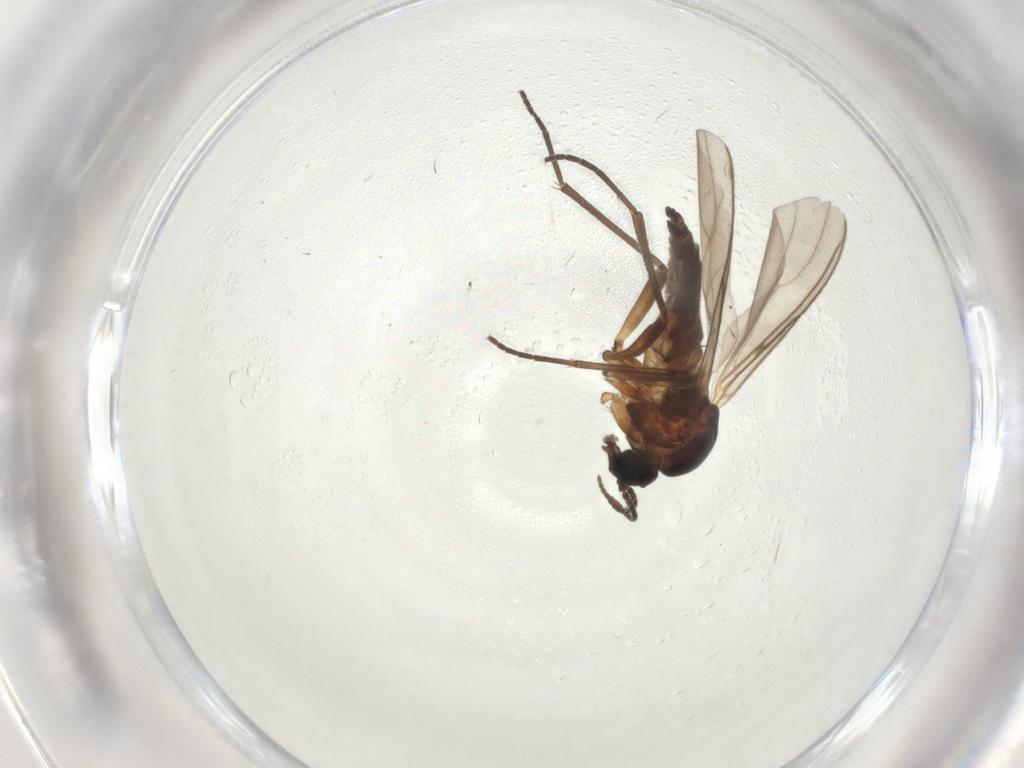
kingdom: Animalia
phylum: Arthropoda
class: Insecta
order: Diptera
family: Sciaridae
